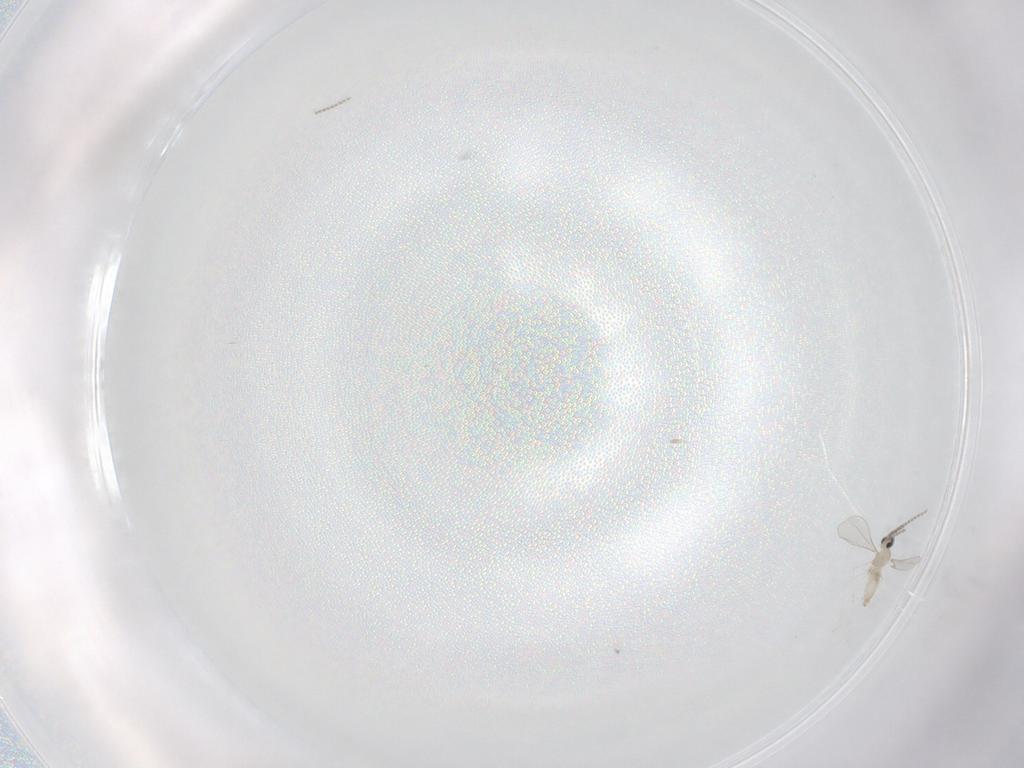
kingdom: Animalia
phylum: Arthropoda
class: Insecta
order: Diptera
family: Cecidomyiidae
